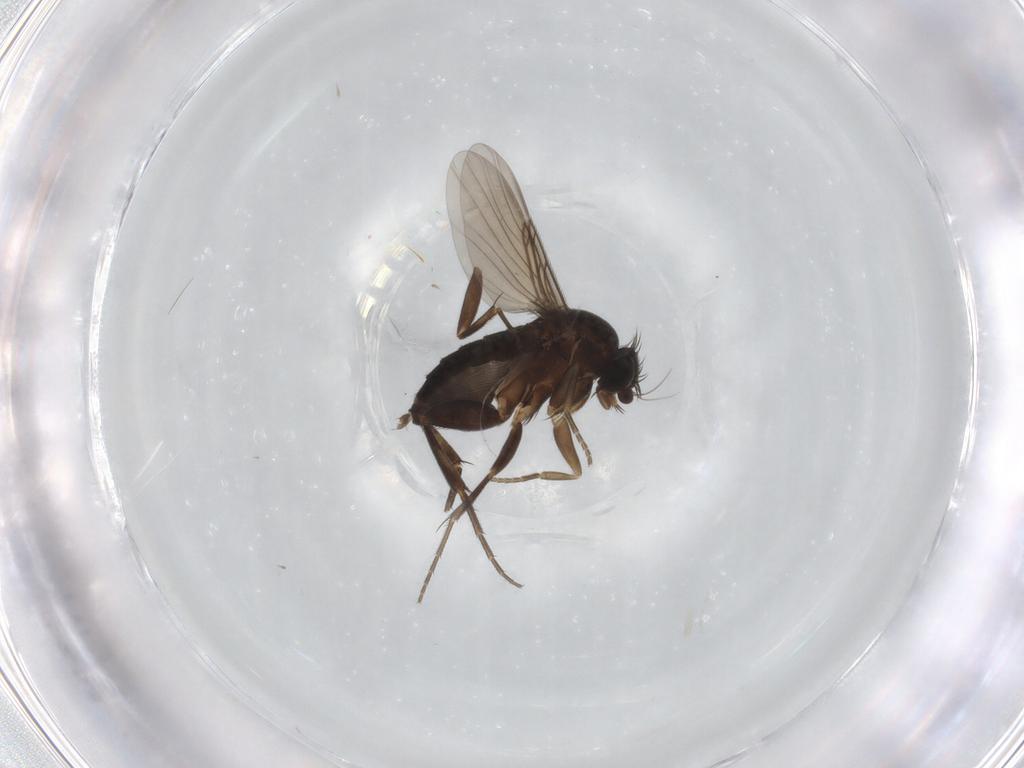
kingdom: Animalia
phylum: Arthropoda
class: Insecta
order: Diptera
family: Phoridae
